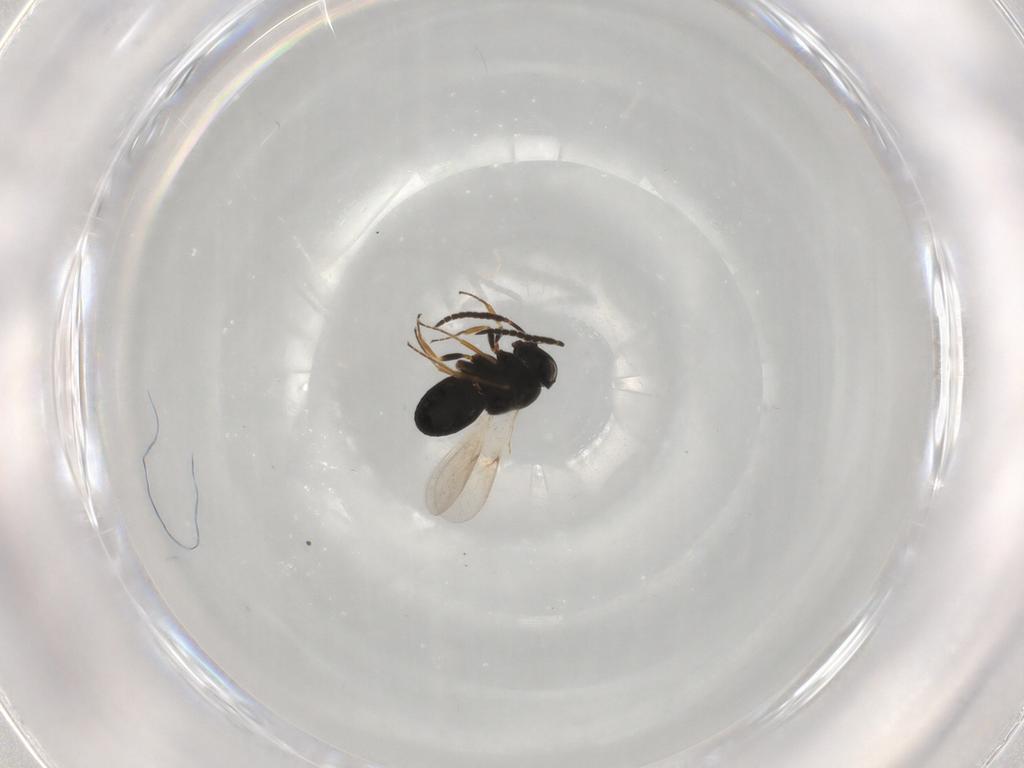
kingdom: Animalia
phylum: Arthropoda
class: Insecta
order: Hymenoptera
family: Scelionidae
